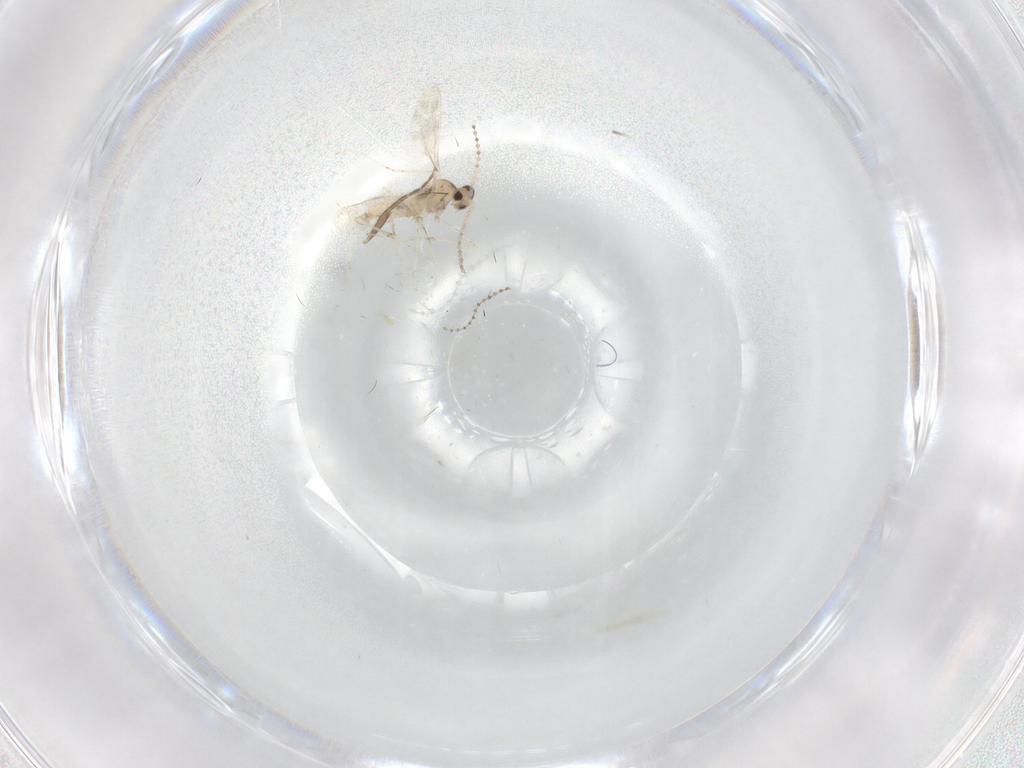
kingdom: Animalia
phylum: Arthropoda
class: Insecta
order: Diptera
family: Cecidomyiidae
